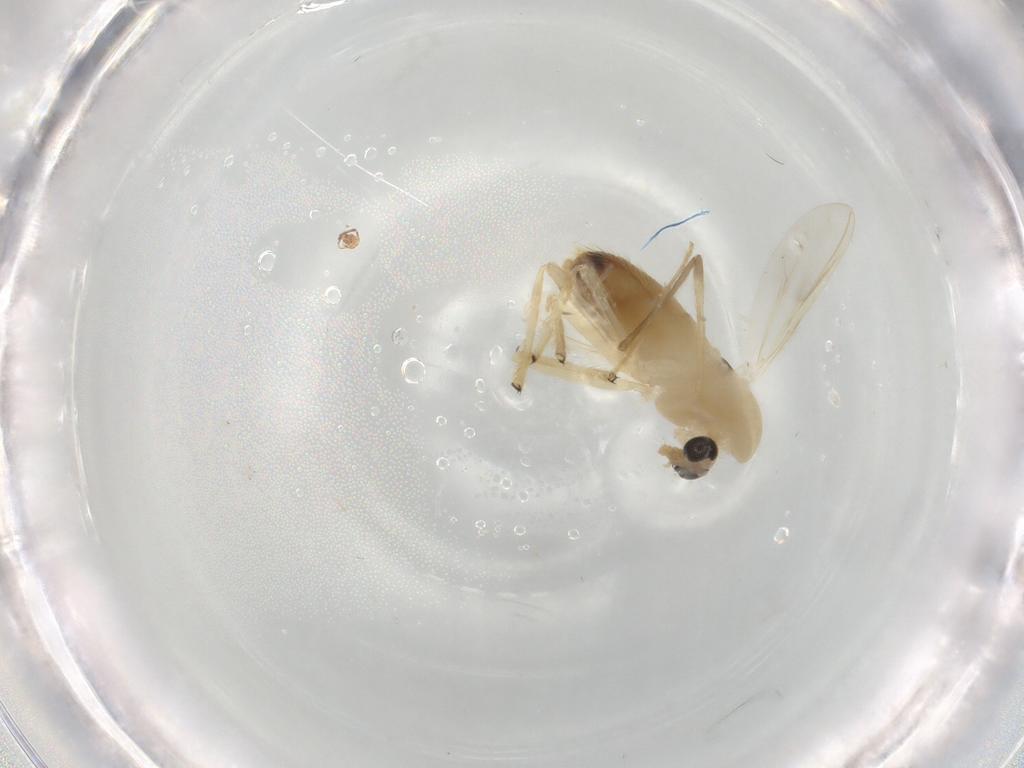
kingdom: Animalia
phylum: Arthropoda
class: Insecta
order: Diptera
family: Chironomidae
